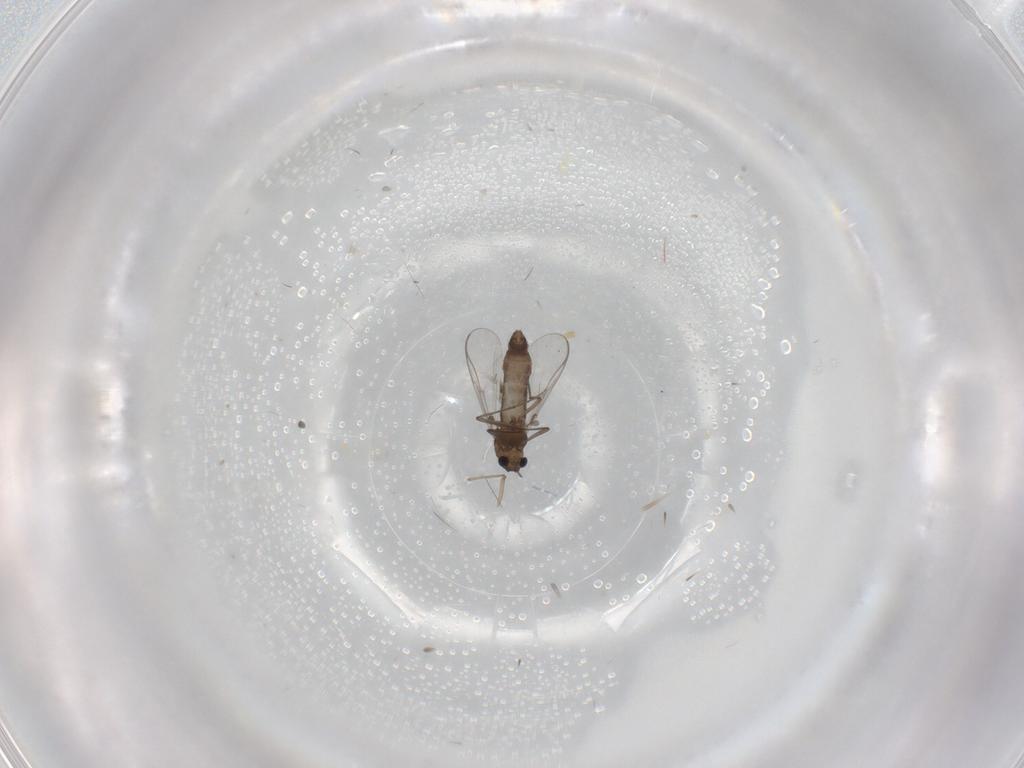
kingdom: Animalia
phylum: Arthropoda
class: Insecta
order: Diptera
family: Chironomidae
